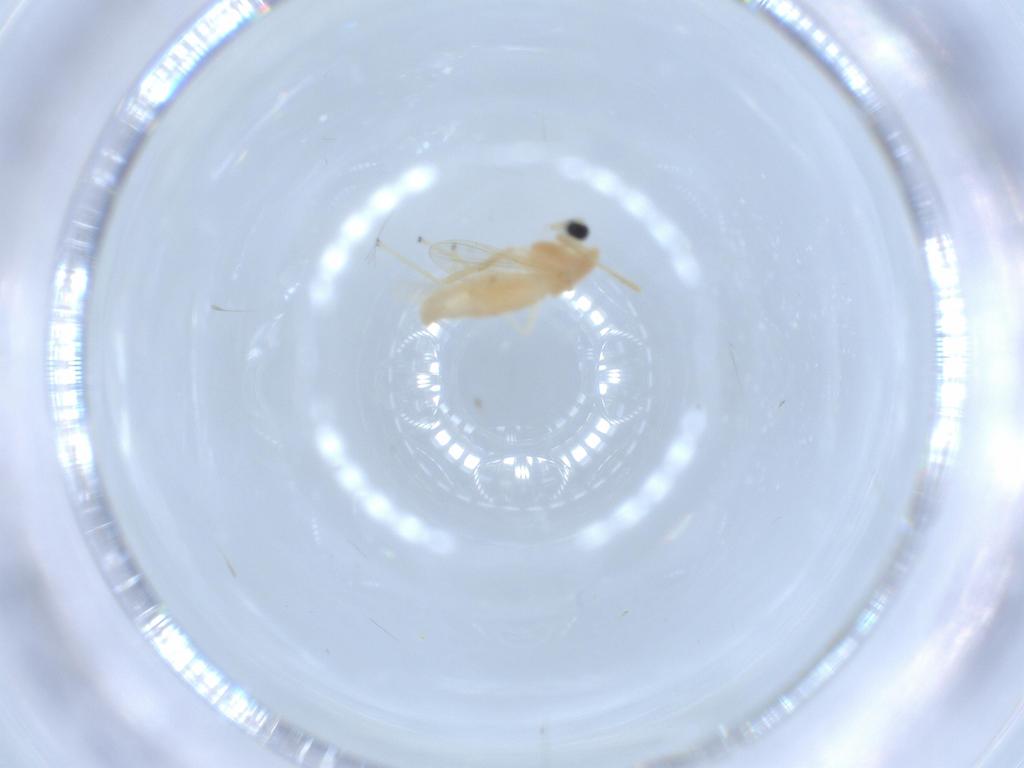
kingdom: Animalia
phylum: Arthropoda
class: Insecta
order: Diptera
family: Chironomidae
